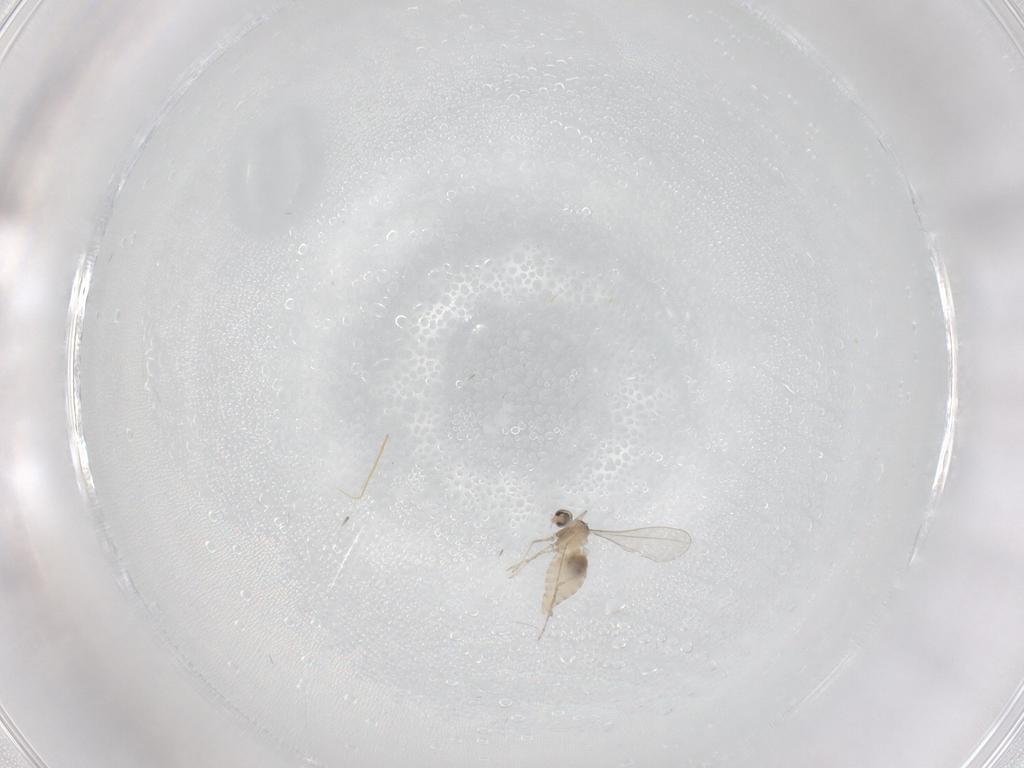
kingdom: Animalia
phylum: Arthropoda
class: Insecta
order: Diptera
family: Cecidomyiidae
